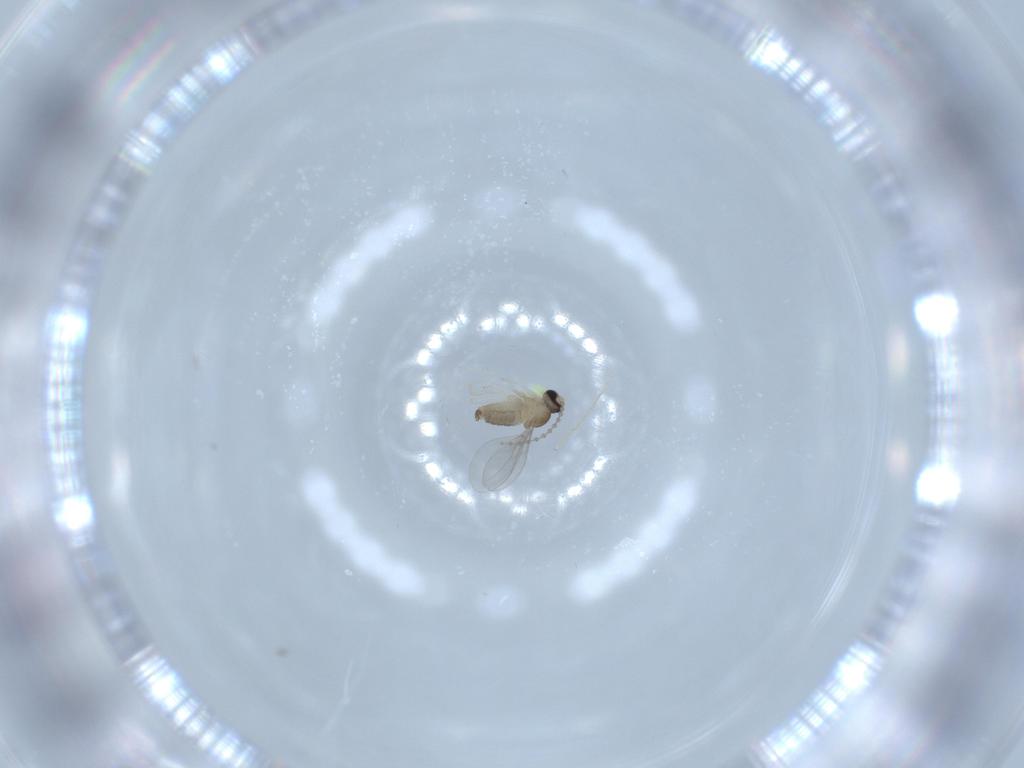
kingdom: Animalia
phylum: Arthropoda
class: Insecta
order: Diptera
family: Cecidomyiidae
